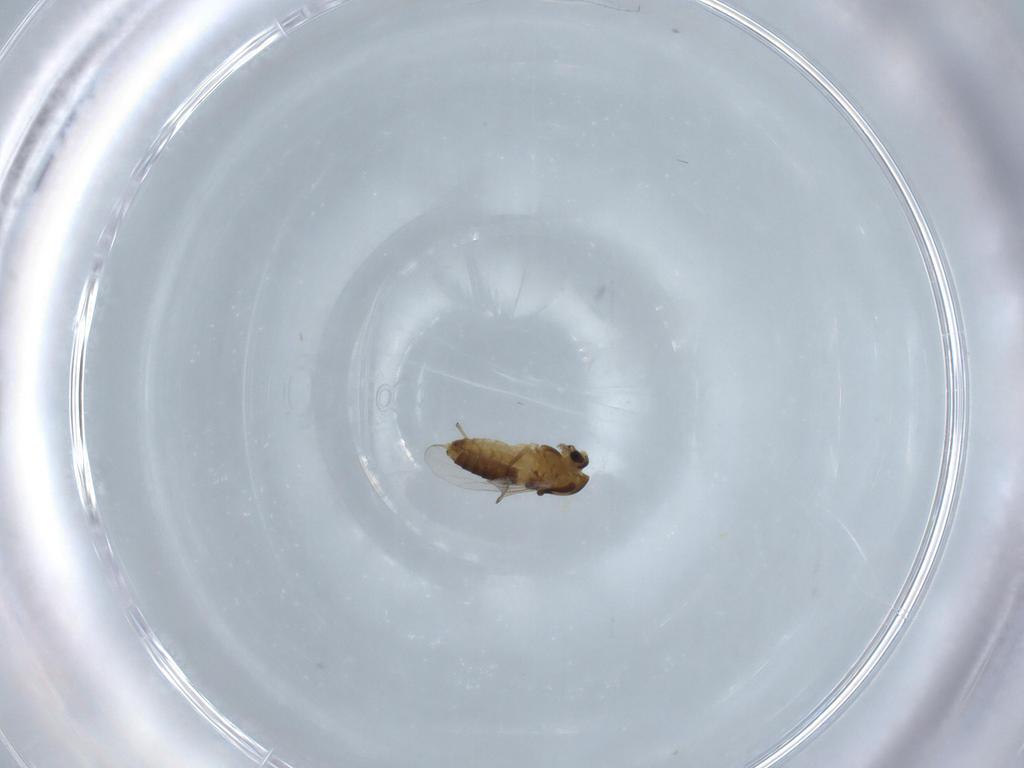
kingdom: Animalia
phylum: Arthropoda
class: Insecta
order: Diptera
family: Chironomidae
